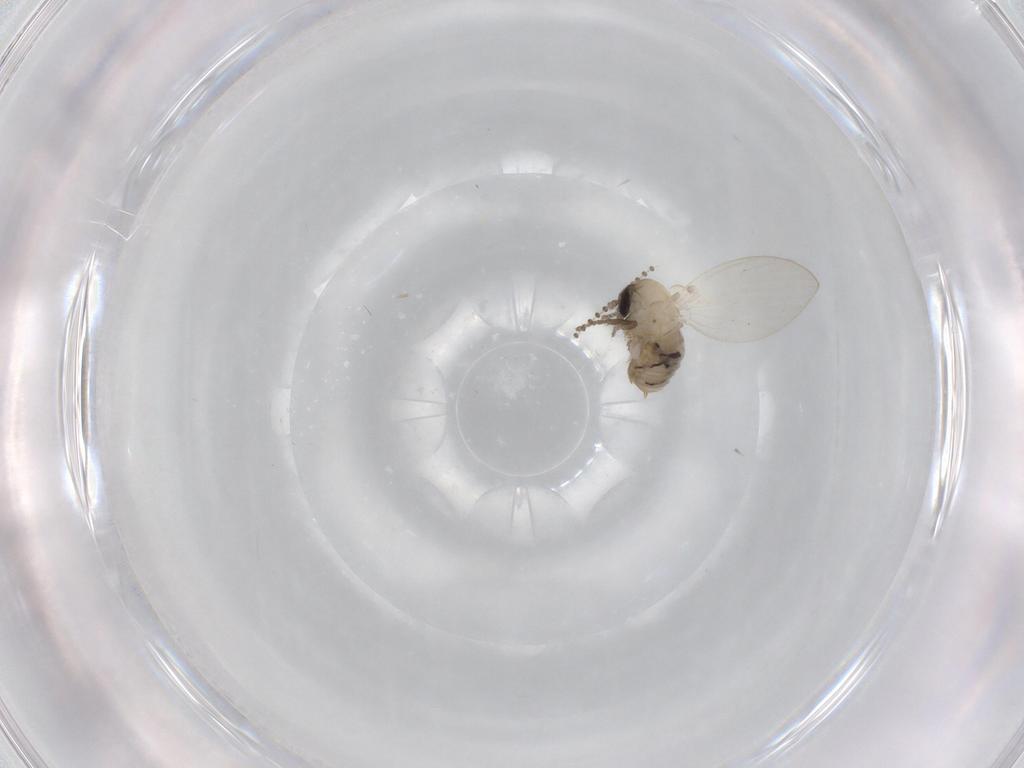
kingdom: Animalia
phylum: Arthropoda
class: Insecta
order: Diptera
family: Psychodidae
